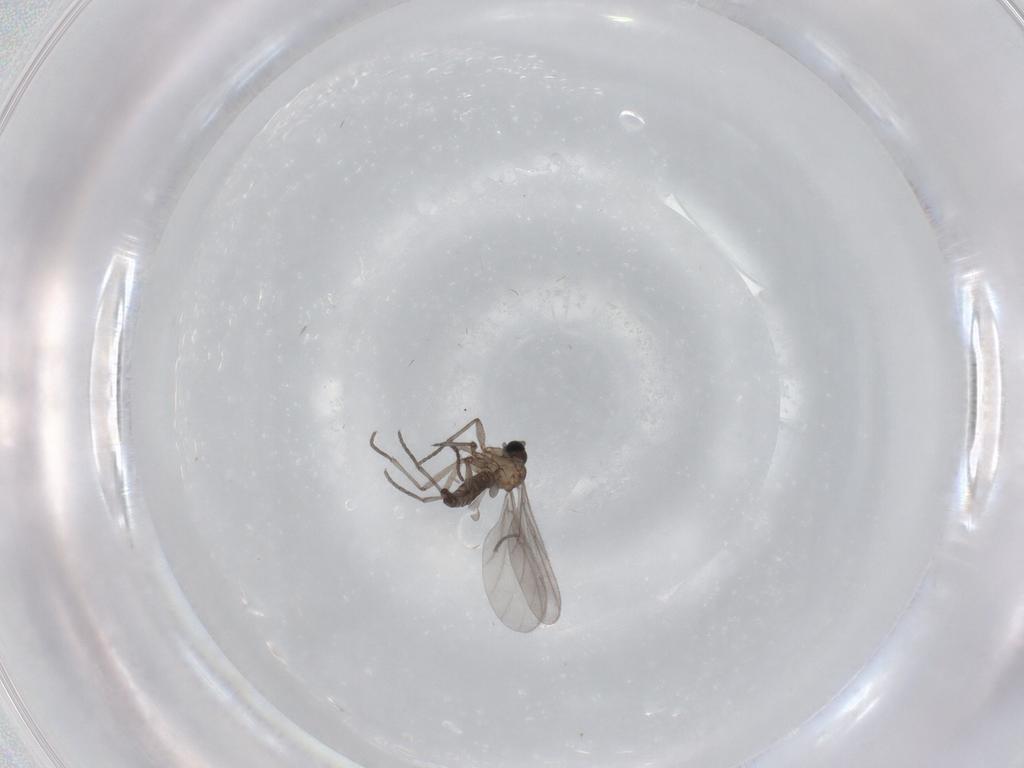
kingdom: Animalia
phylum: Arthropoda
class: Insecta
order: Diptera
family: Sciaridae
